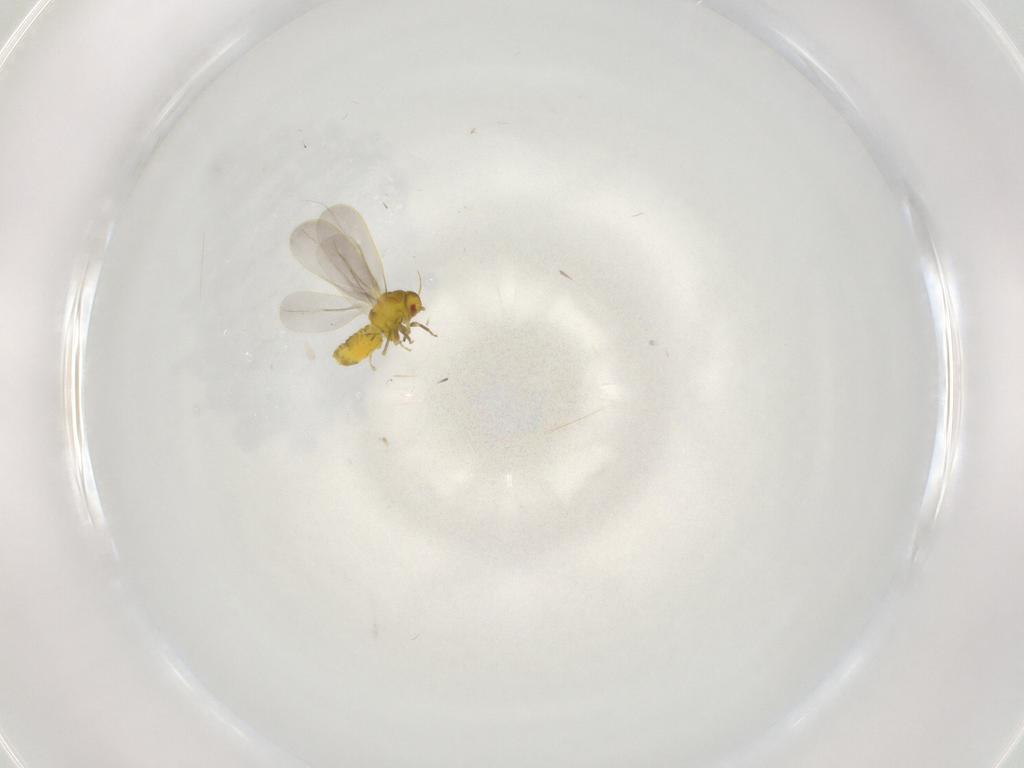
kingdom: Animalia
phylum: Arthropoda
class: Insecta
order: Hemiptera
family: Aleyrodidae
